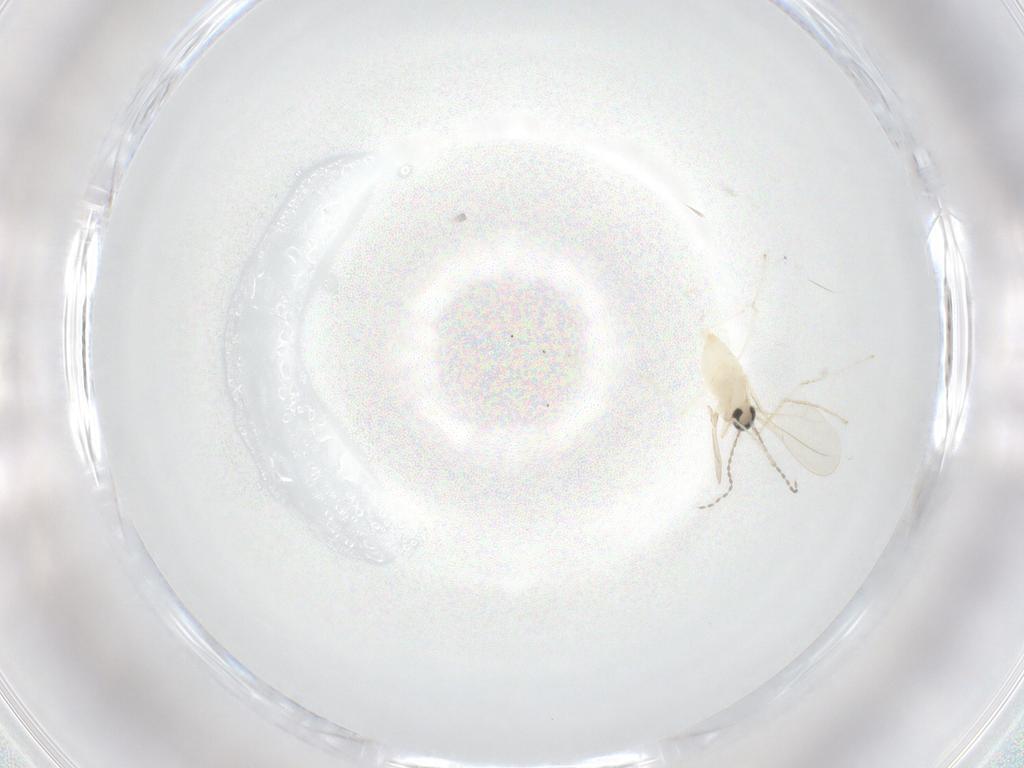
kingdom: Animalia
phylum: Arthropoda
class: Insecta
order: Diptera
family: Cecidomyiidae
